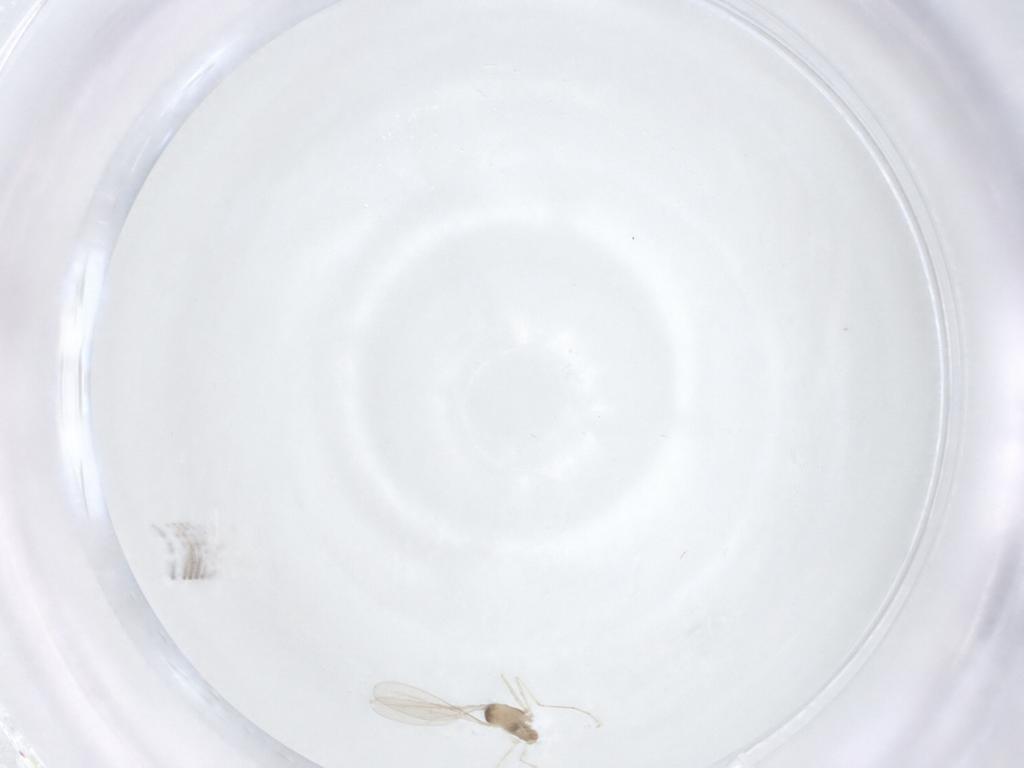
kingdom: Animalia
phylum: Arthropoda
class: Insecta
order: Diptera
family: Cecidomyiidae
